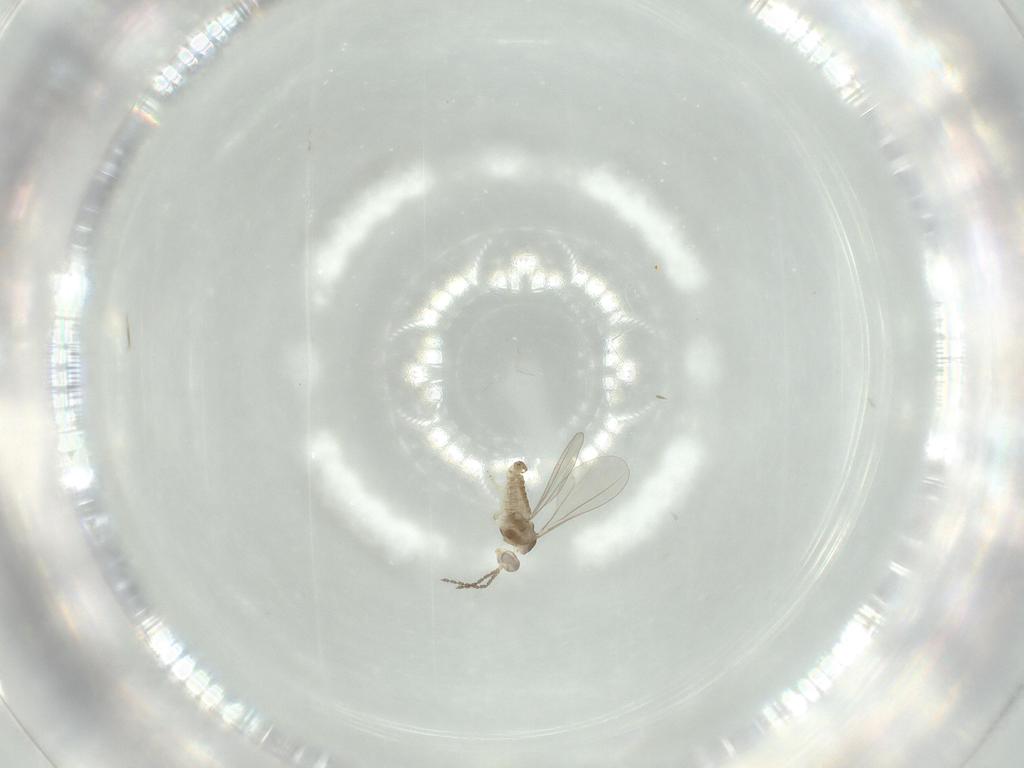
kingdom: Animalia
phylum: Arthropoda
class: Insecta
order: Diptera
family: Cecidomyiidae
